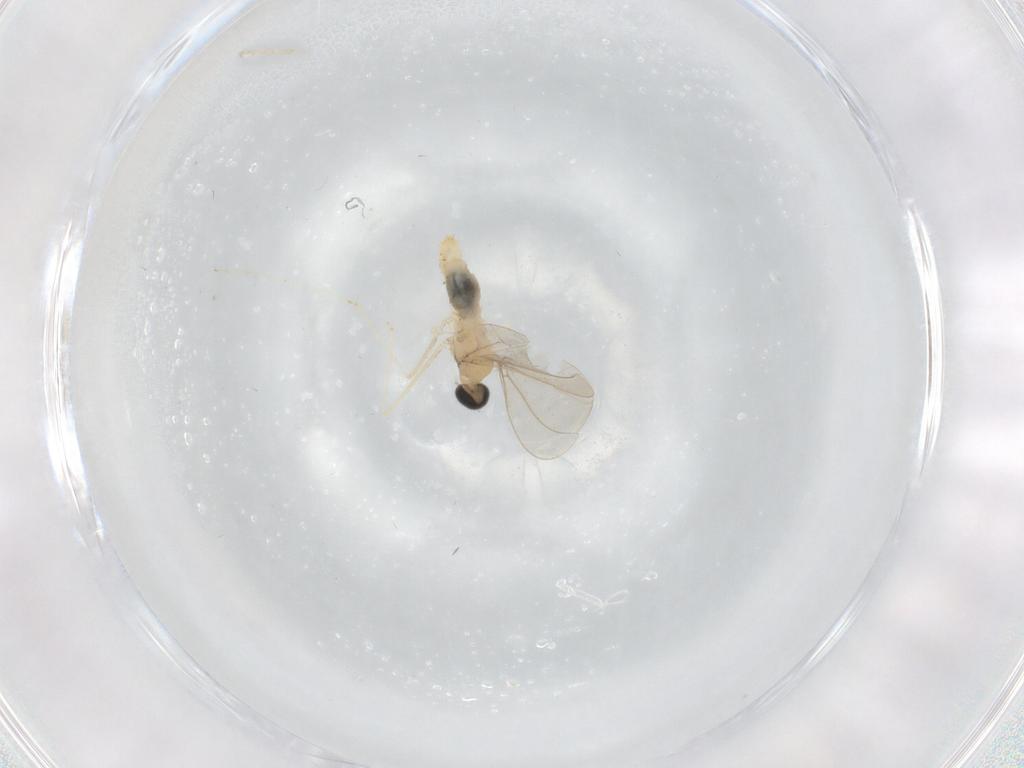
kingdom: Animalia
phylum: Arthropoda
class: Insecta
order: Diptera
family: Cecidomyiidae
